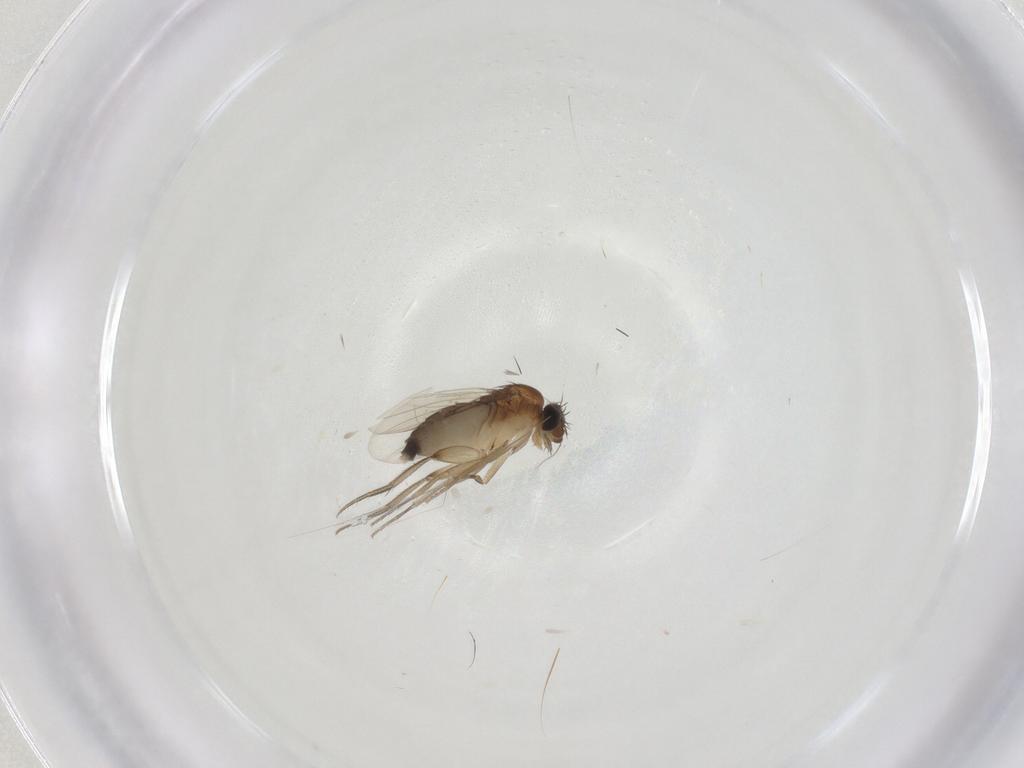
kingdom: Animalia
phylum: Arthropoda
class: Insecta
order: Diptera
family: Phoridae
